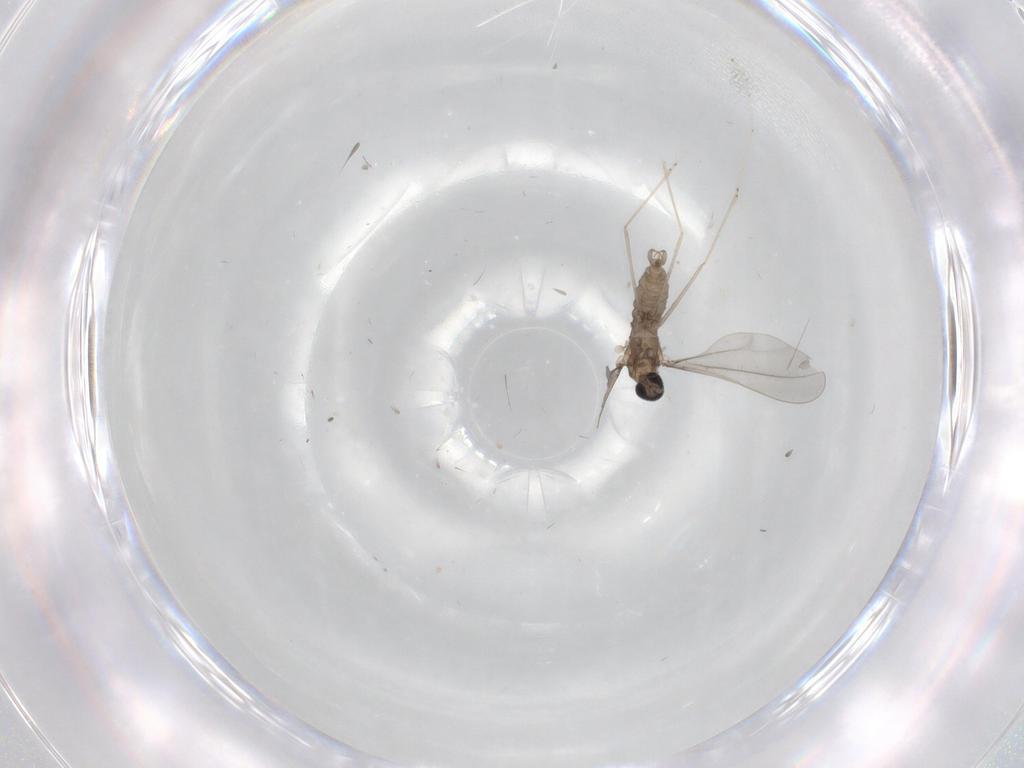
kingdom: Animalia
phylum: Arthropoda
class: Insecta
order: Diptera
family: Cecidomyiidae
